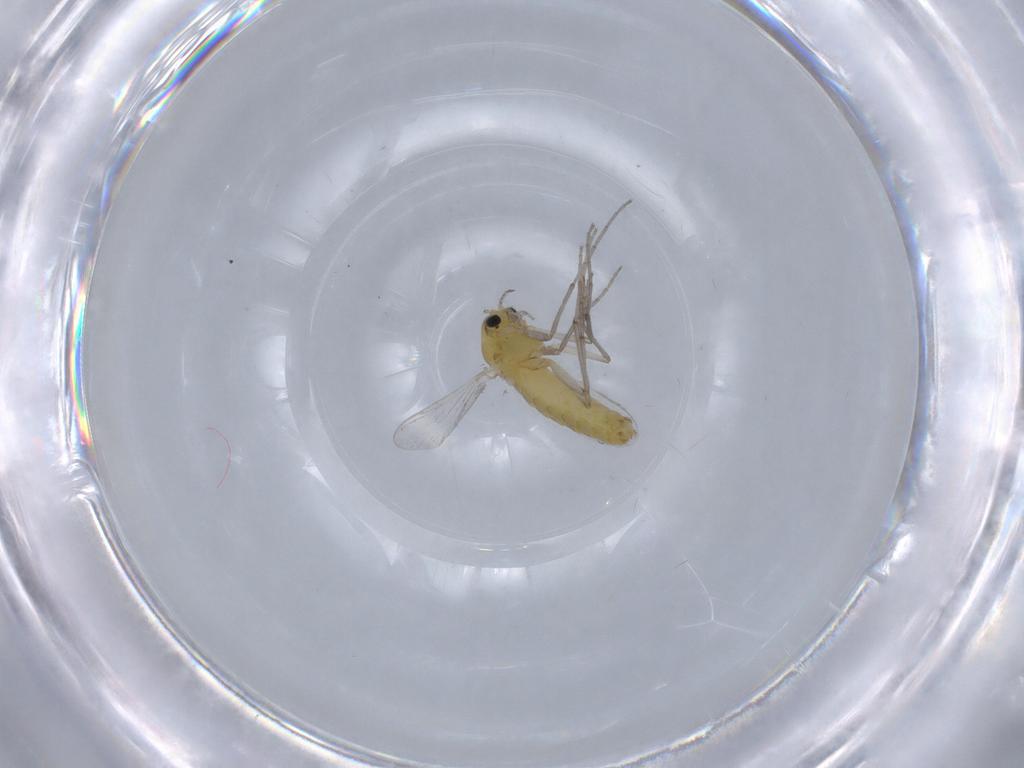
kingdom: Animalia
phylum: Arthropoda
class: Insecta
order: Diptera
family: Chironomidae
